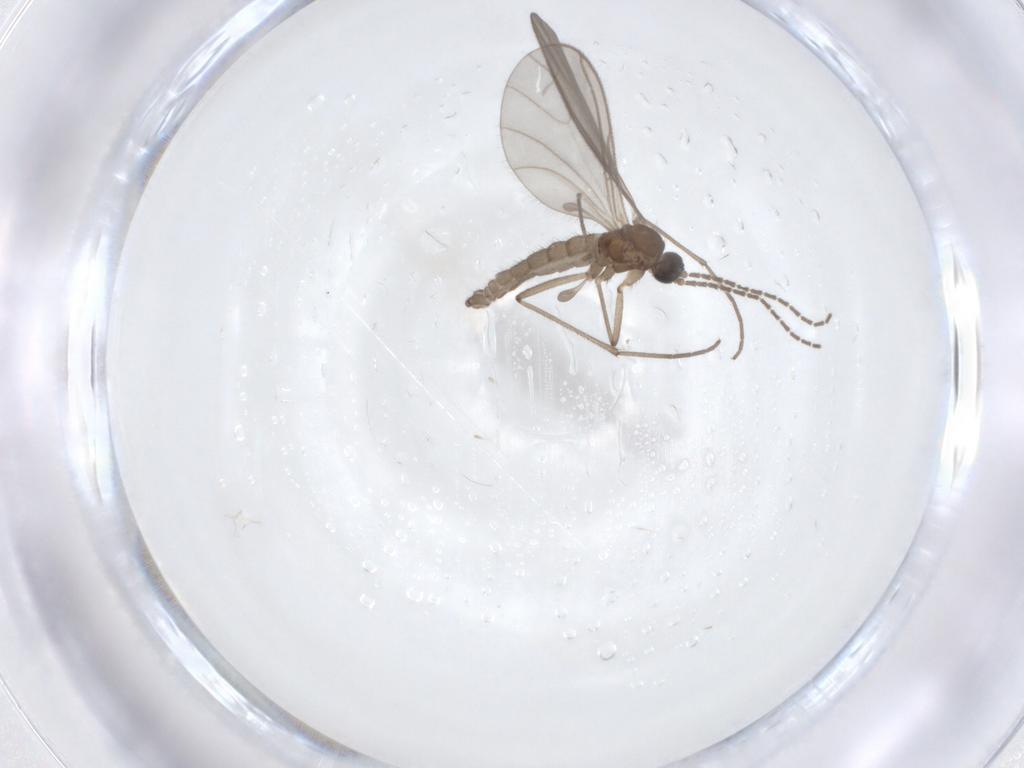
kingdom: Animalia
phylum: Arthropoda
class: Insecta
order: Diptera
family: Sciaridae
